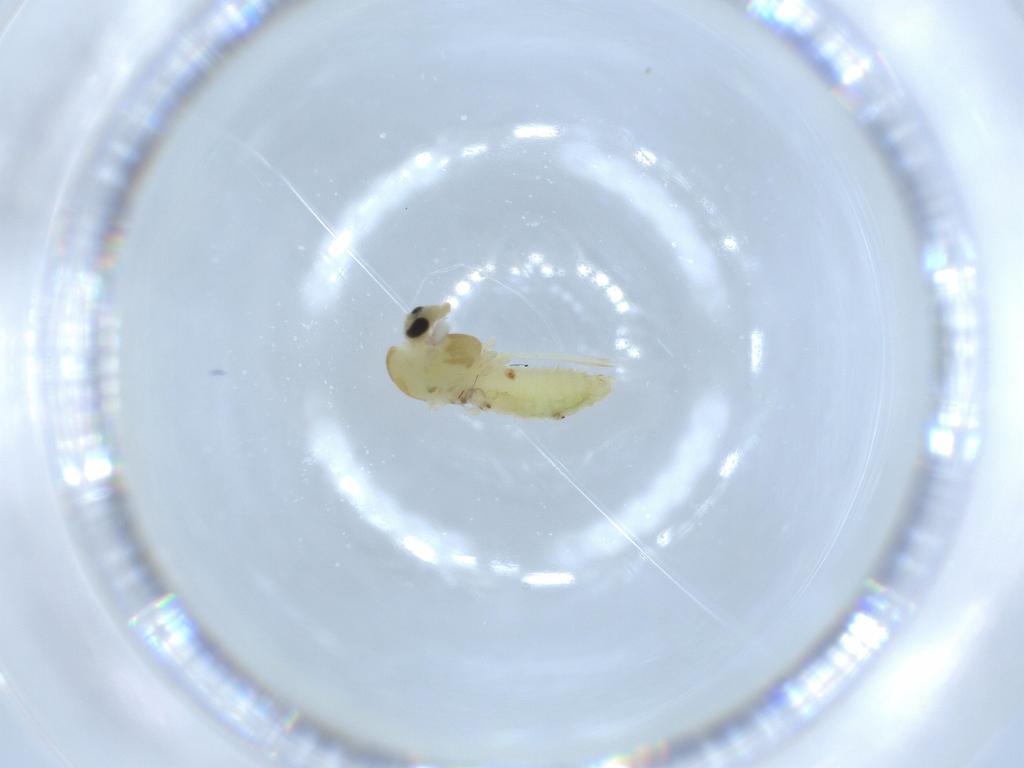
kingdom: Animalia
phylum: Arthropoda
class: Insecta
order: Diptera
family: Chironomidae
